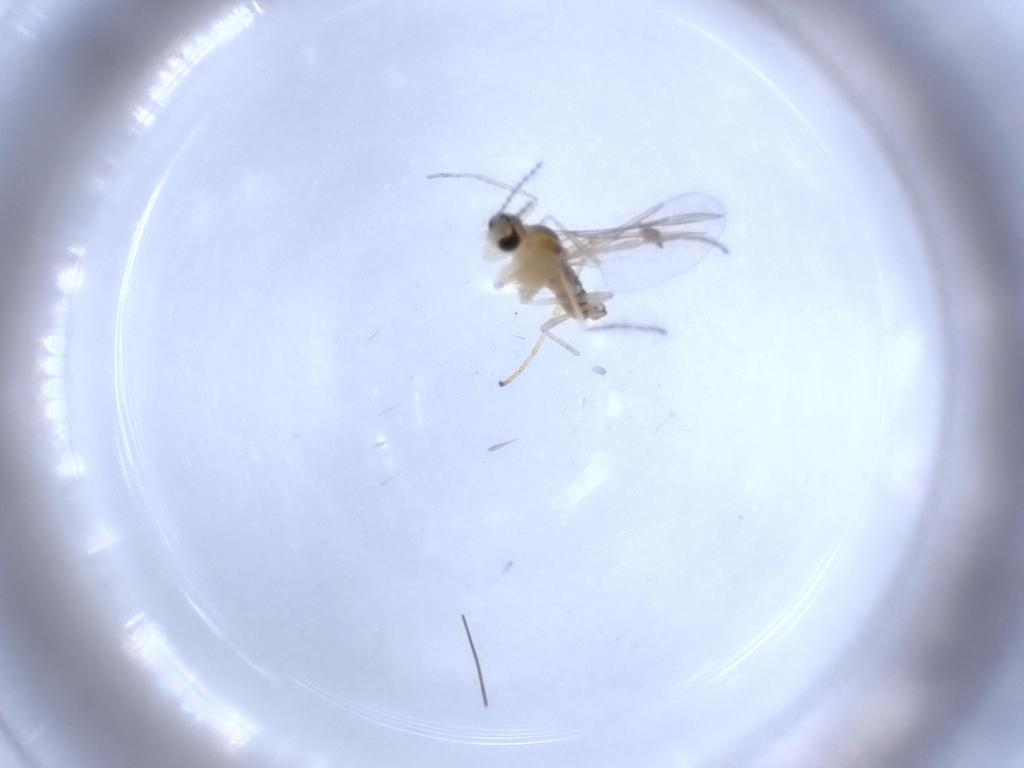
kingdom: Animalia
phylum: Arthropoda
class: Insecta
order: Diptera
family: Cecidomyiidae
